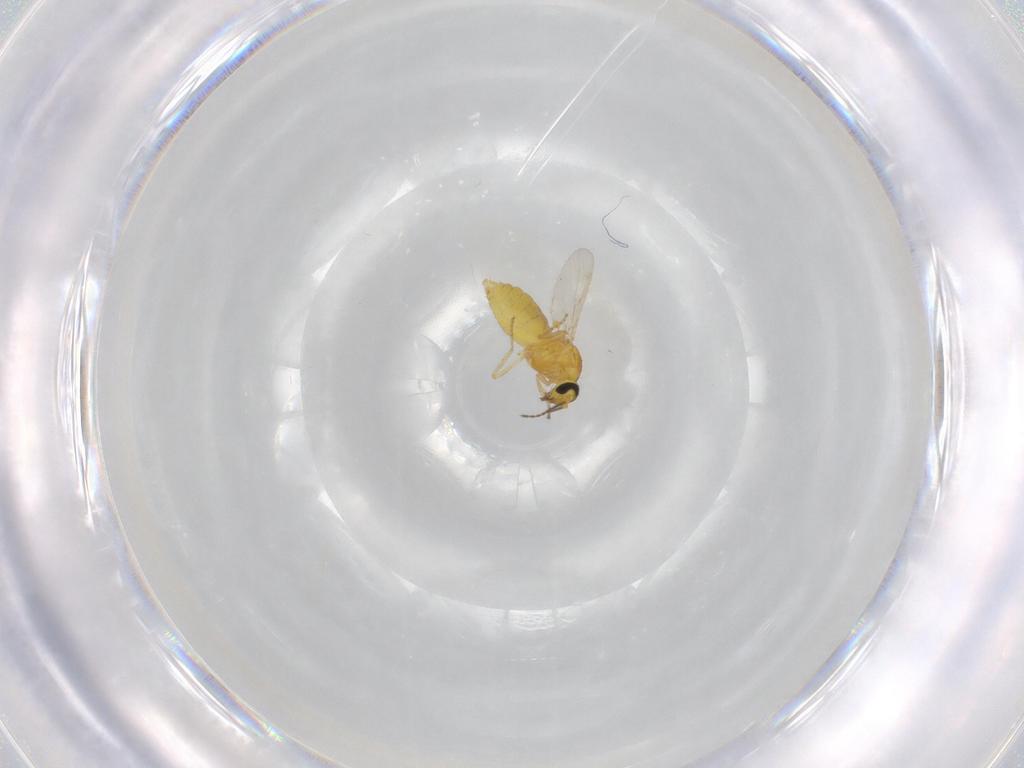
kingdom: Animalia
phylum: Arthropoda
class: Insecta
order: Diptera
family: Ceratopogonidae
